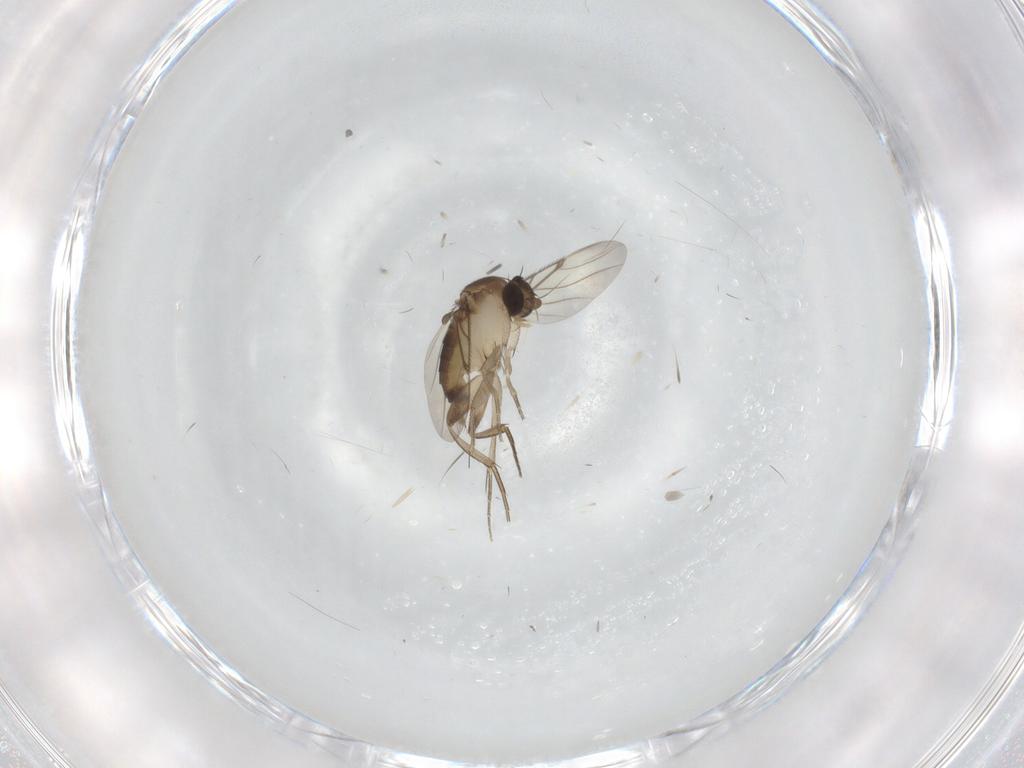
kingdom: Animalia
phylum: Arthropoda
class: Insecta
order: Diptera
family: Phoridae
